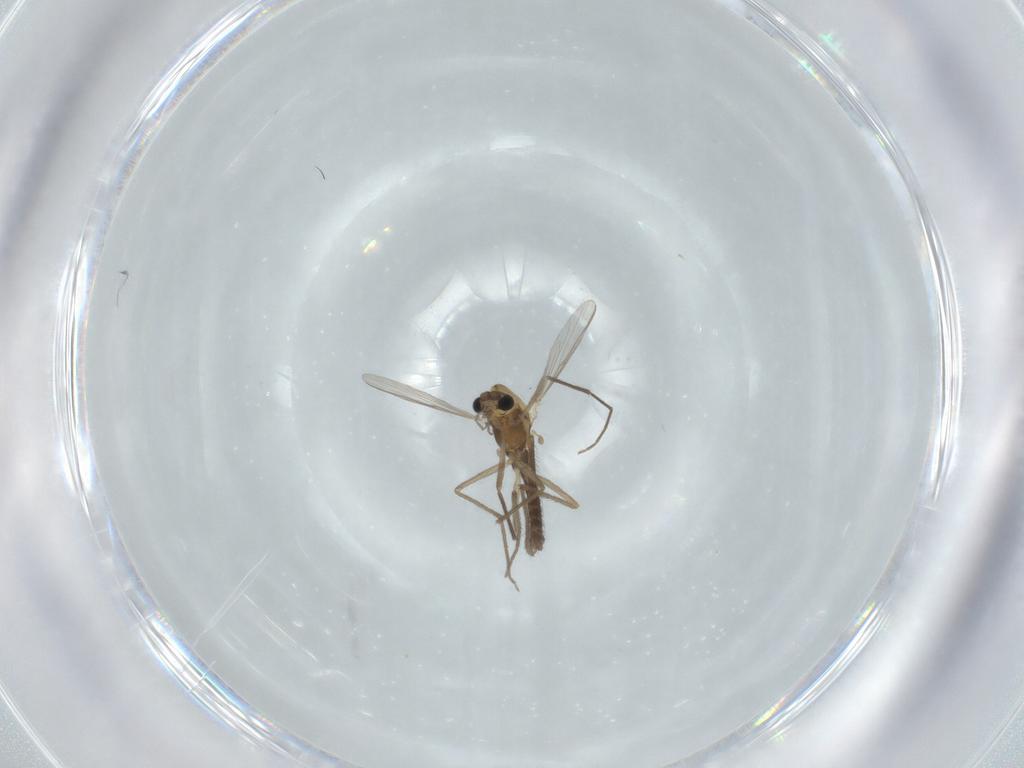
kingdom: Animalia
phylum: Arthropoda
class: Insecta
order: Diptera
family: Chironomidae
